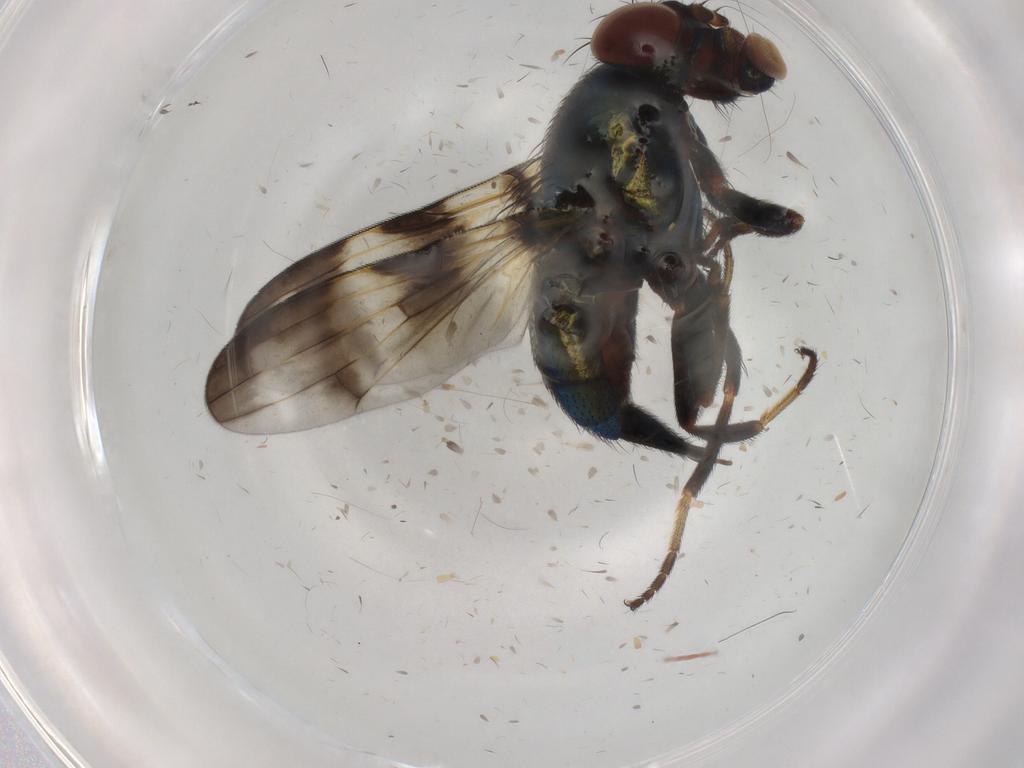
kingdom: Animalia
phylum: Arthropoda
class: Insecta
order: Diptera
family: Ulidiidae
